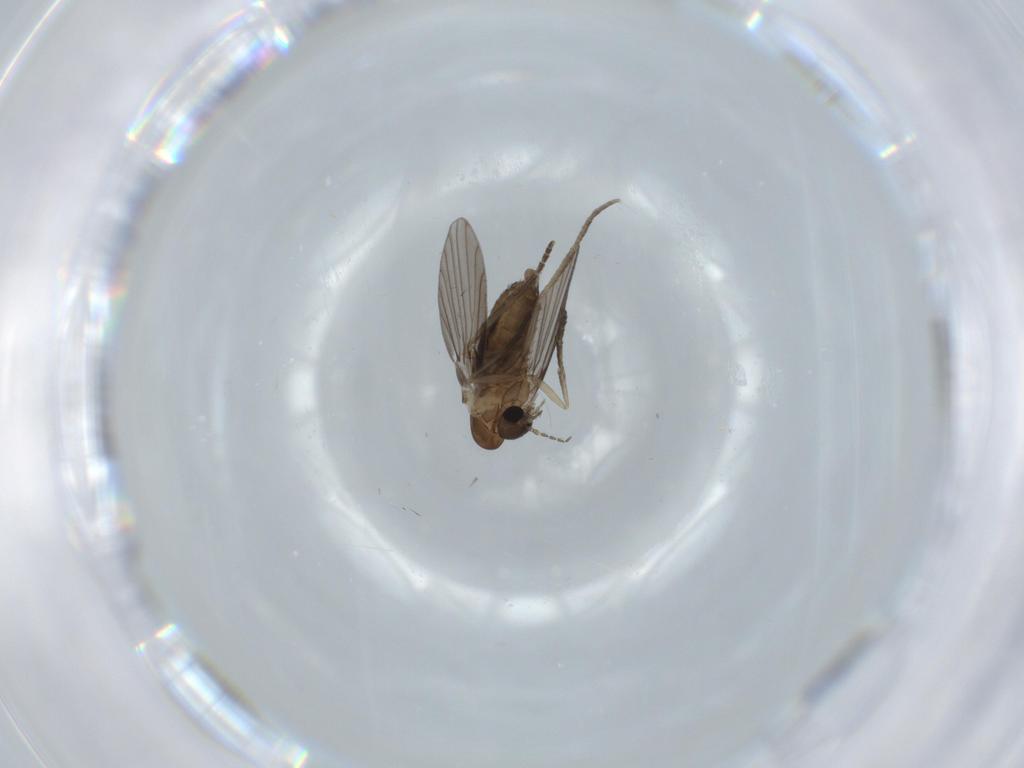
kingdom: Animalia
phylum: Arthropoda
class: Insecta
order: Diptera
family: Psychodidae
